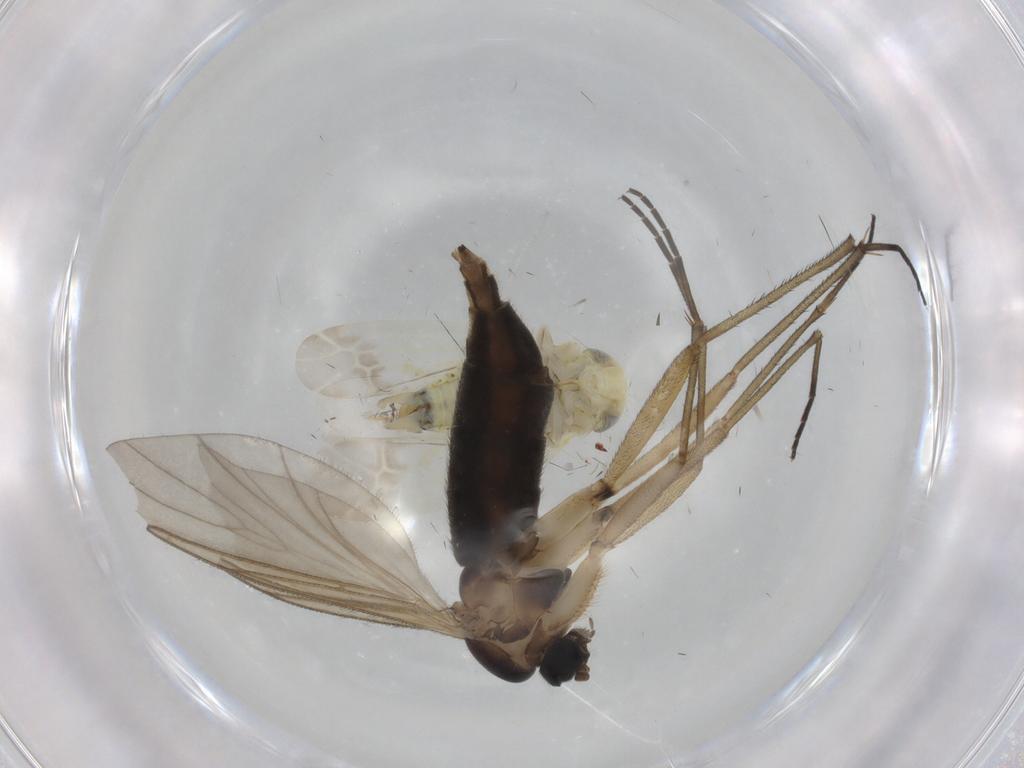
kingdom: Animalia
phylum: Arthropoda
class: Insecta
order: Hemiptera
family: Cicadellidae
